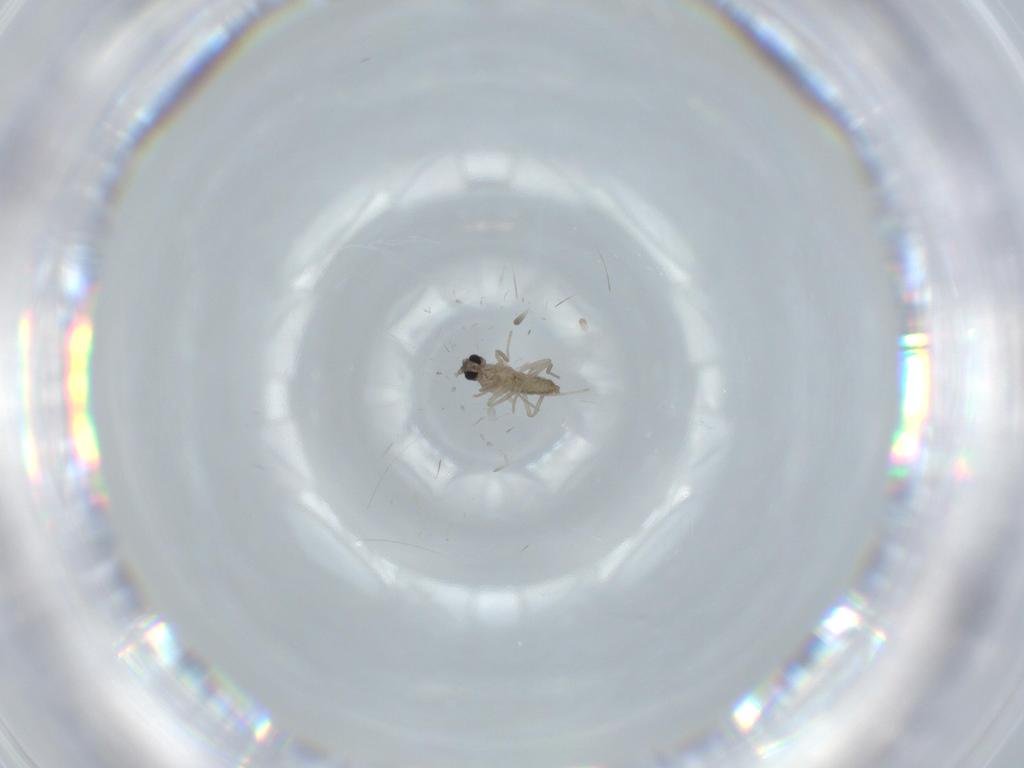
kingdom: Animalia
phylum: Arthropoda
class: Insecta
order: Diptera
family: Cecidomyiidae
